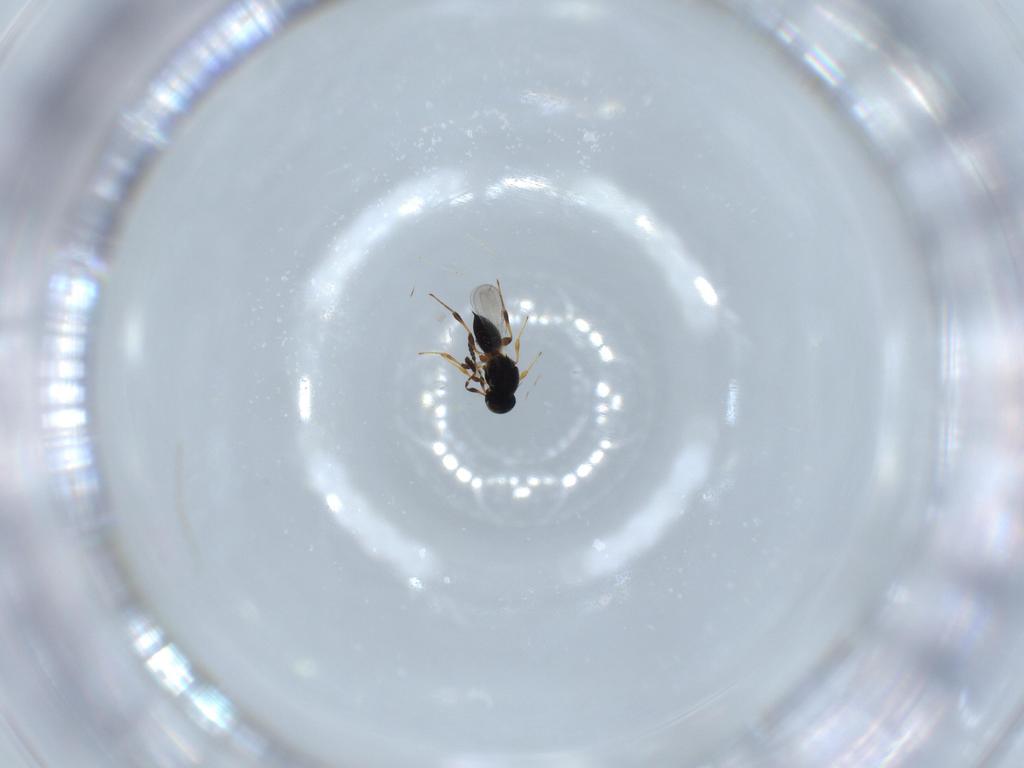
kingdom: Animalia
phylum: Arthropoda
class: Insecta
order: Hymenoptera
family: Platygastridae
